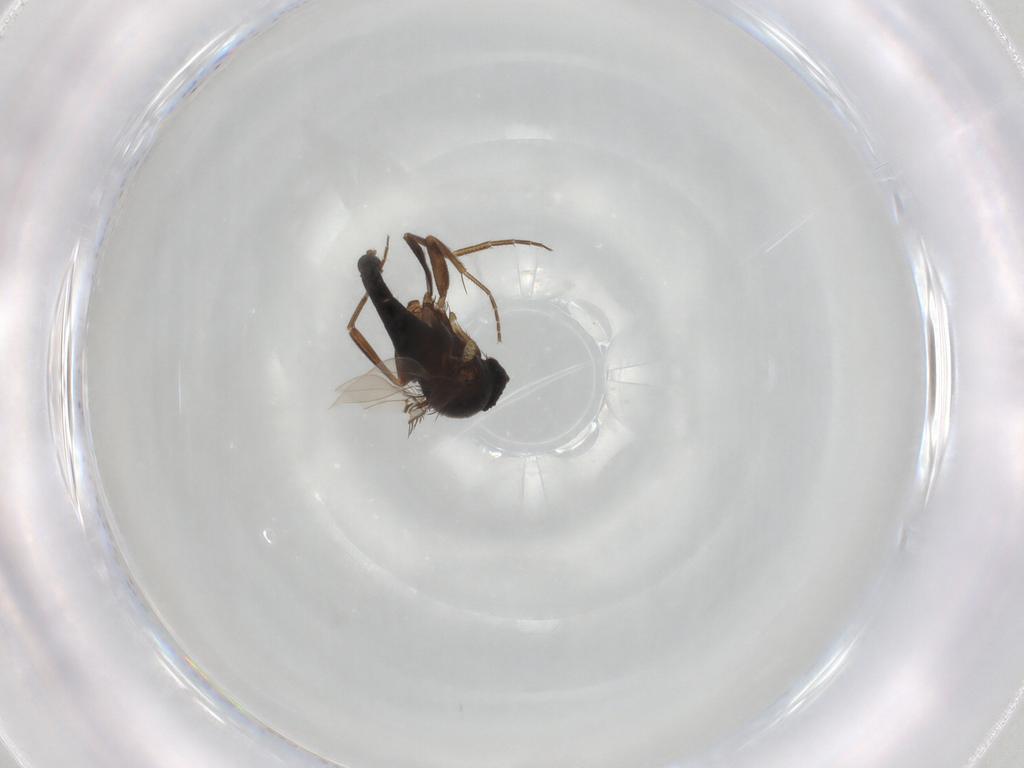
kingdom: Animalia
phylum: Arthropoda
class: Insecta
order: Diptera
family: Phoridae
